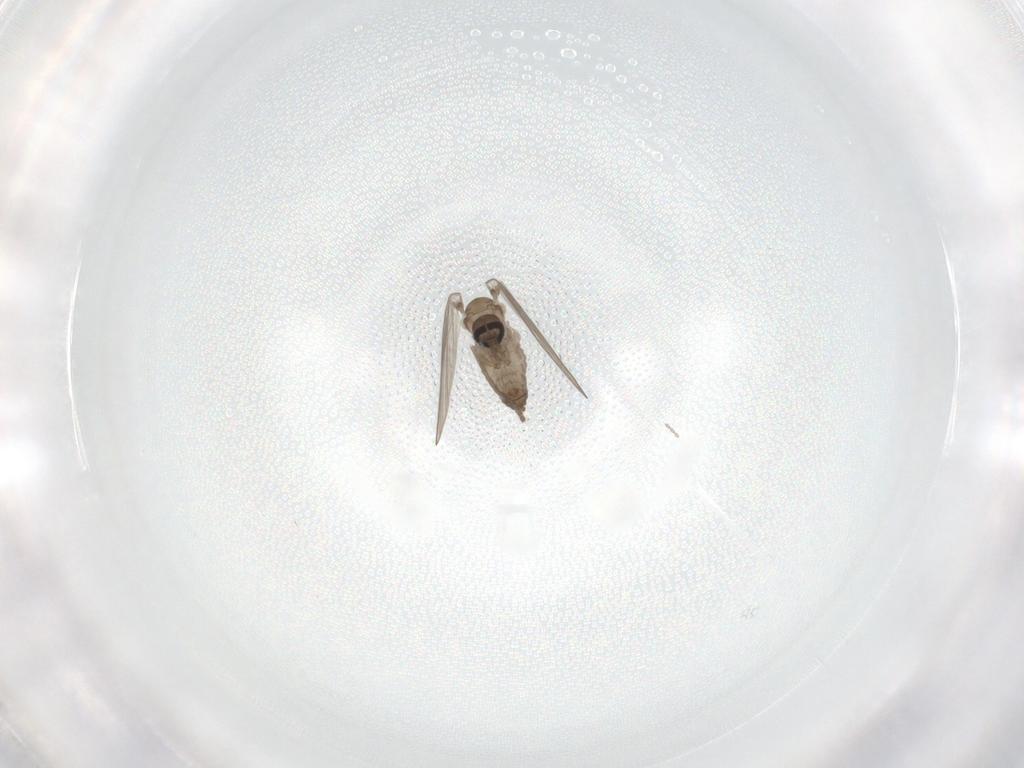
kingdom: Animalia
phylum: Arthropoda
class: Insecta
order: Diptera
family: Psychodidae
